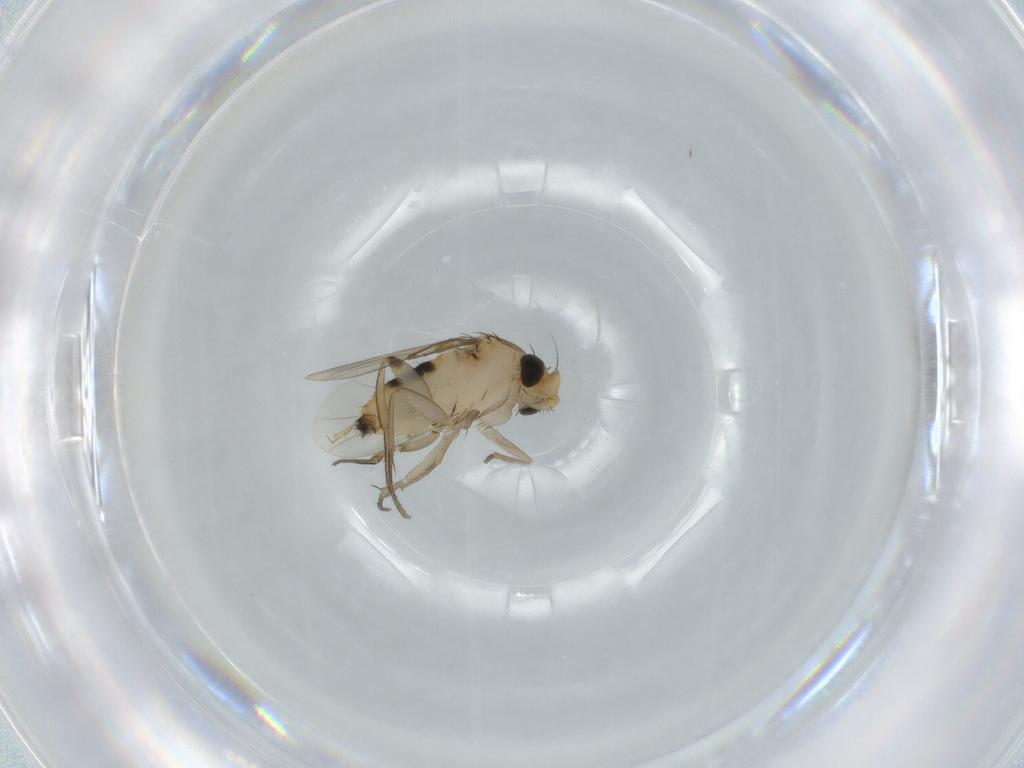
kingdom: Animalia
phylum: Arthropoda
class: Insecta
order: Diptera
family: Phoridae
